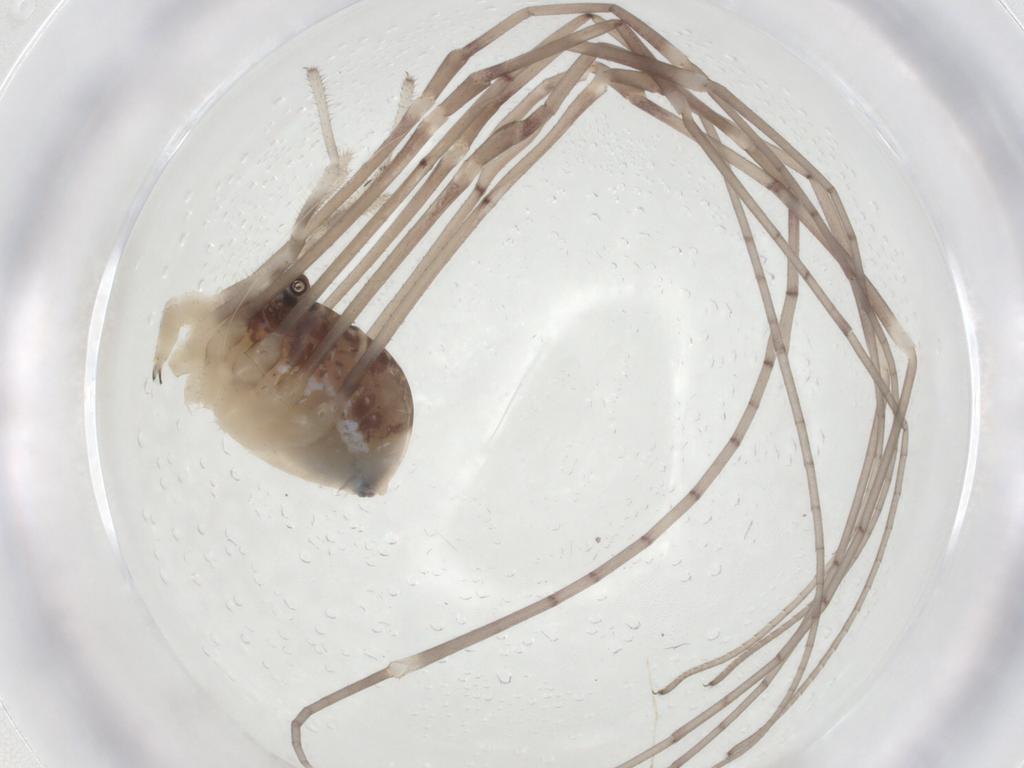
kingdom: Animalia
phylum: Arthropoda
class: Arachnida
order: Opiliones
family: Sclerosomatidae
